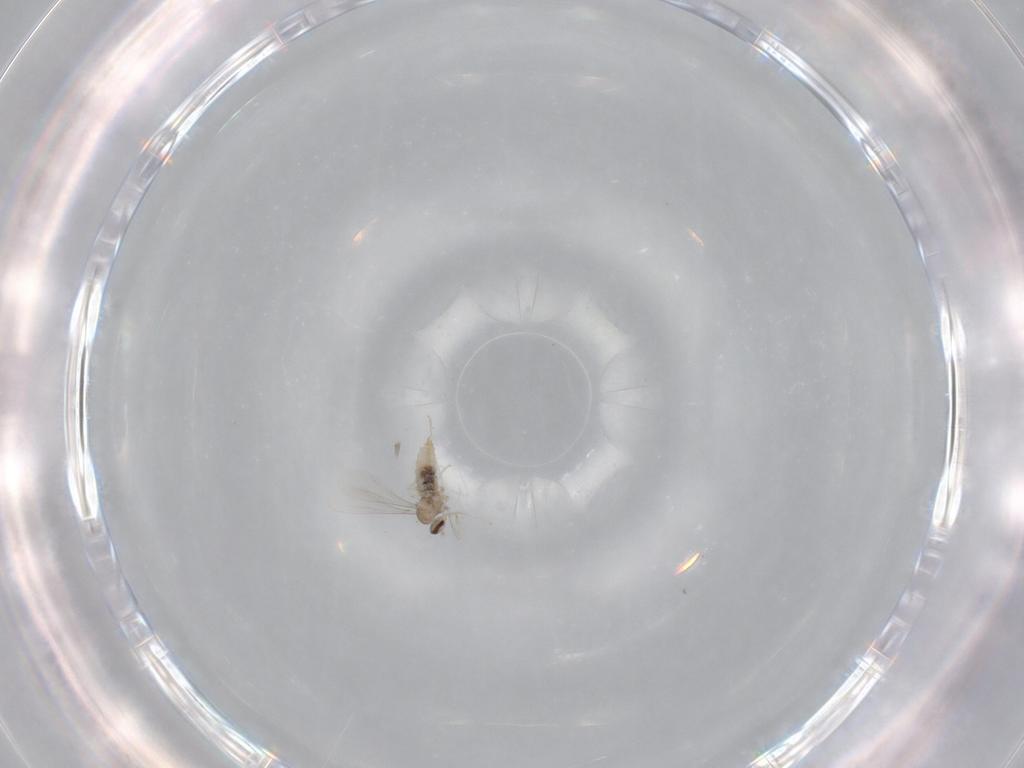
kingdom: Animalia
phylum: Arthropoda
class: Insecta
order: Diptera
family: Cecidomyiidae
